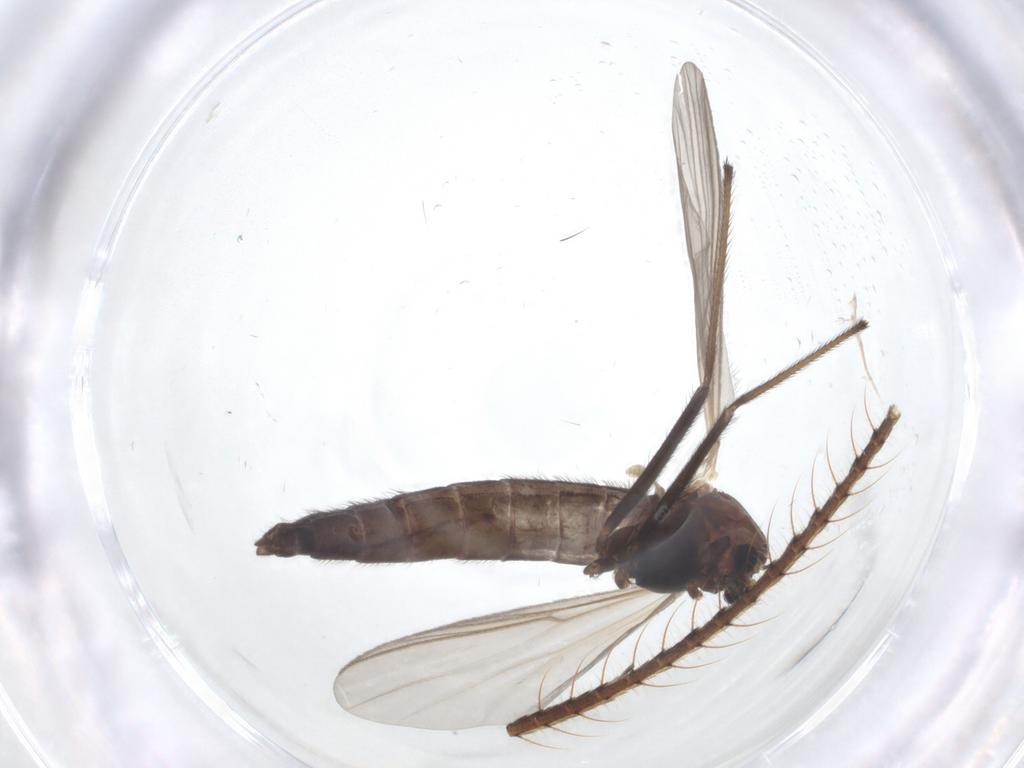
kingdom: Animalia
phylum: Arthropoda
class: Insecta
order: Diptera
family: Chironomidae
